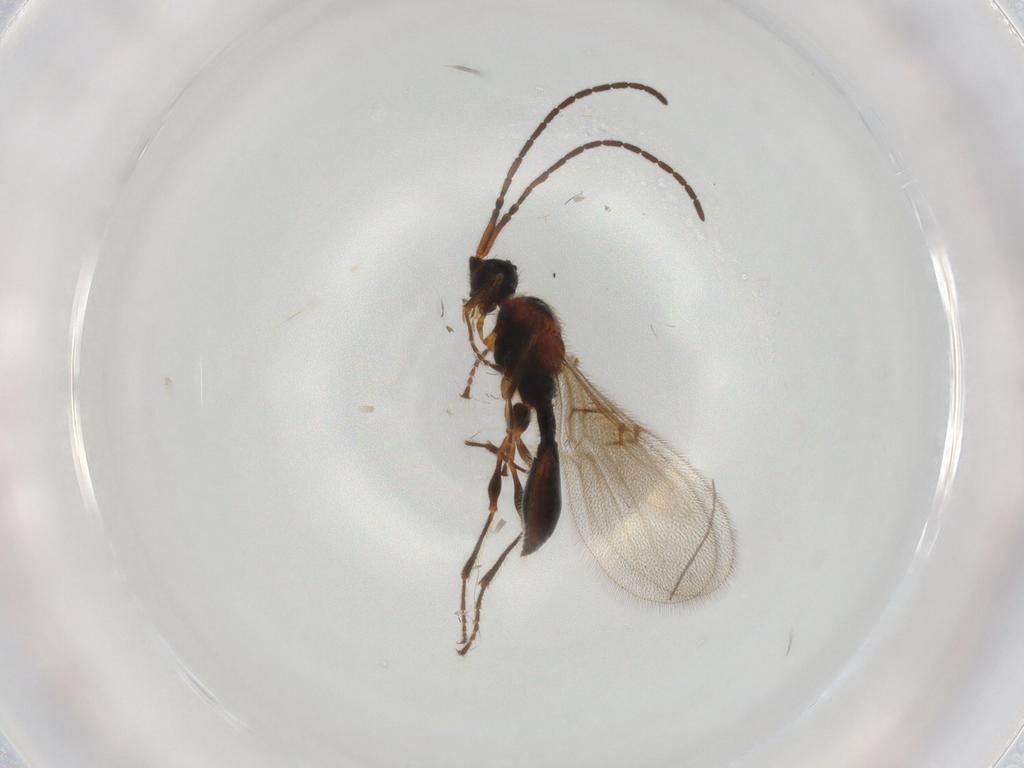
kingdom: Animalia
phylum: Arthropoda
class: Insecta
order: Hymenoptera
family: Diapriidae
